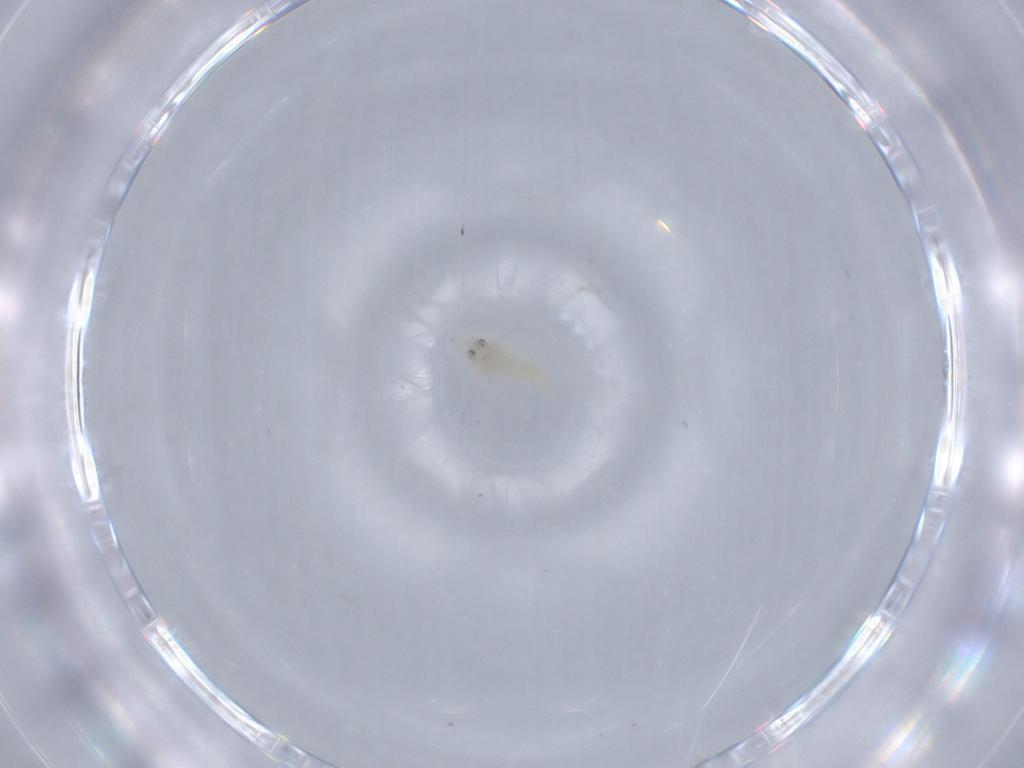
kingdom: Animalia
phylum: Arthropoda
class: Insecta
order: Hemiptera
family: Aleyrodidae
